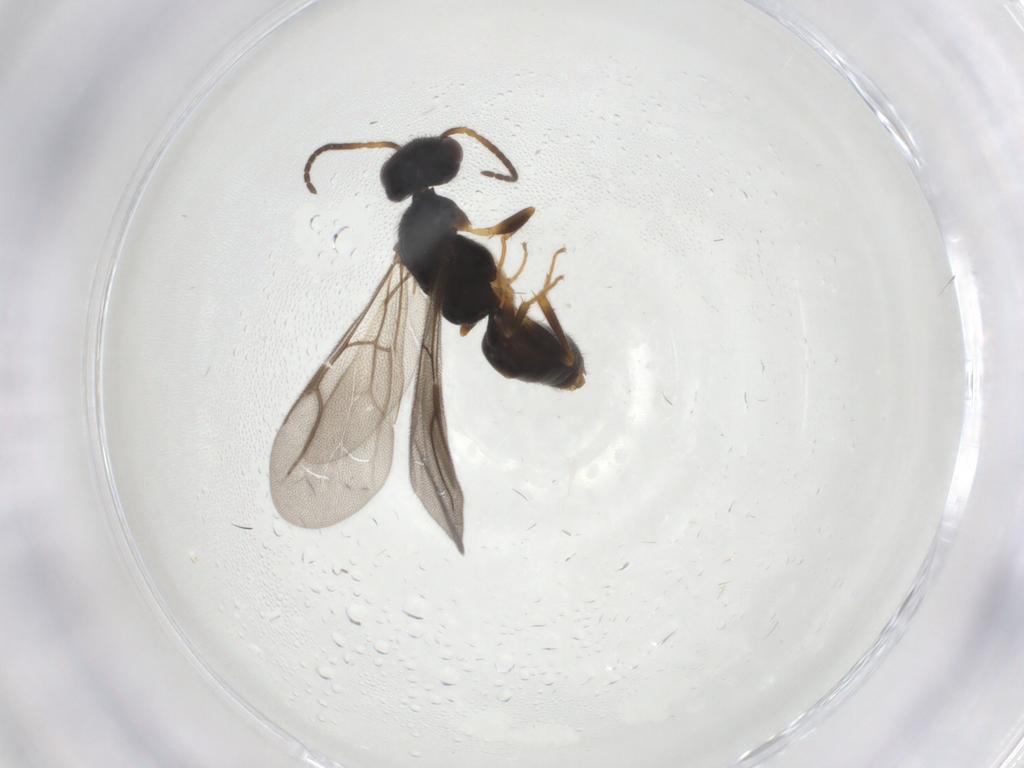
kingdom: Animalia
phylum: Arthropoda
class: Insecta
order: Hymenoptera
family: Bethylidae
